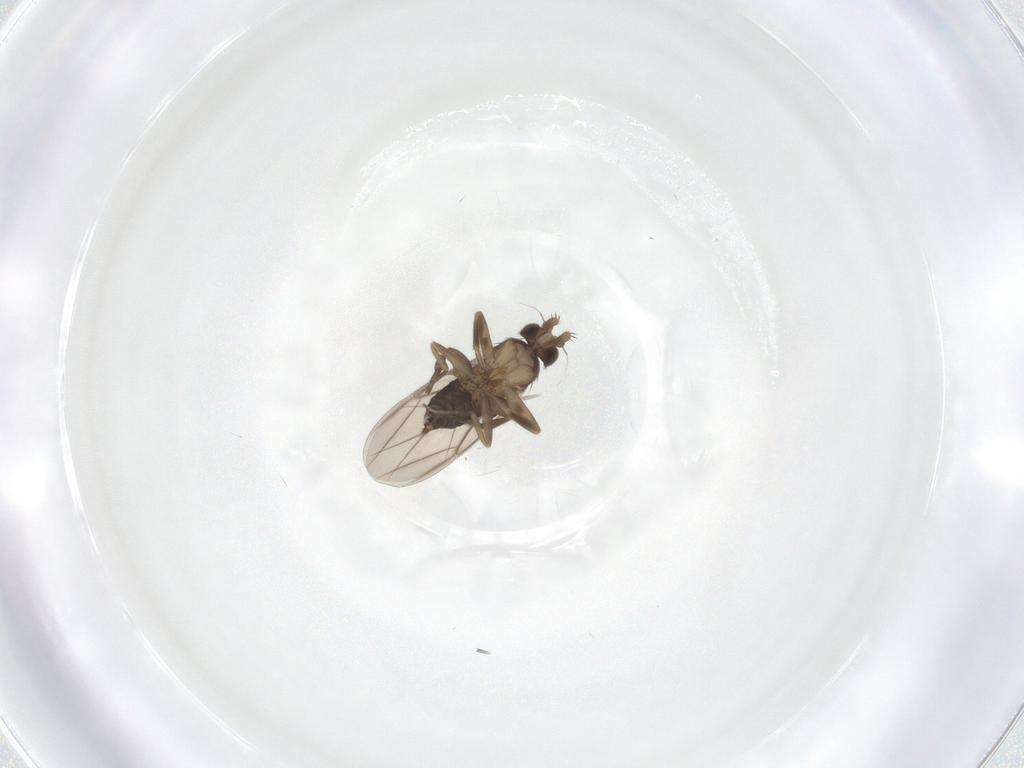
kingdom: Animalia
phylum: Arthropoda
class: Insecta
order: Diptera
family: Phoridae
